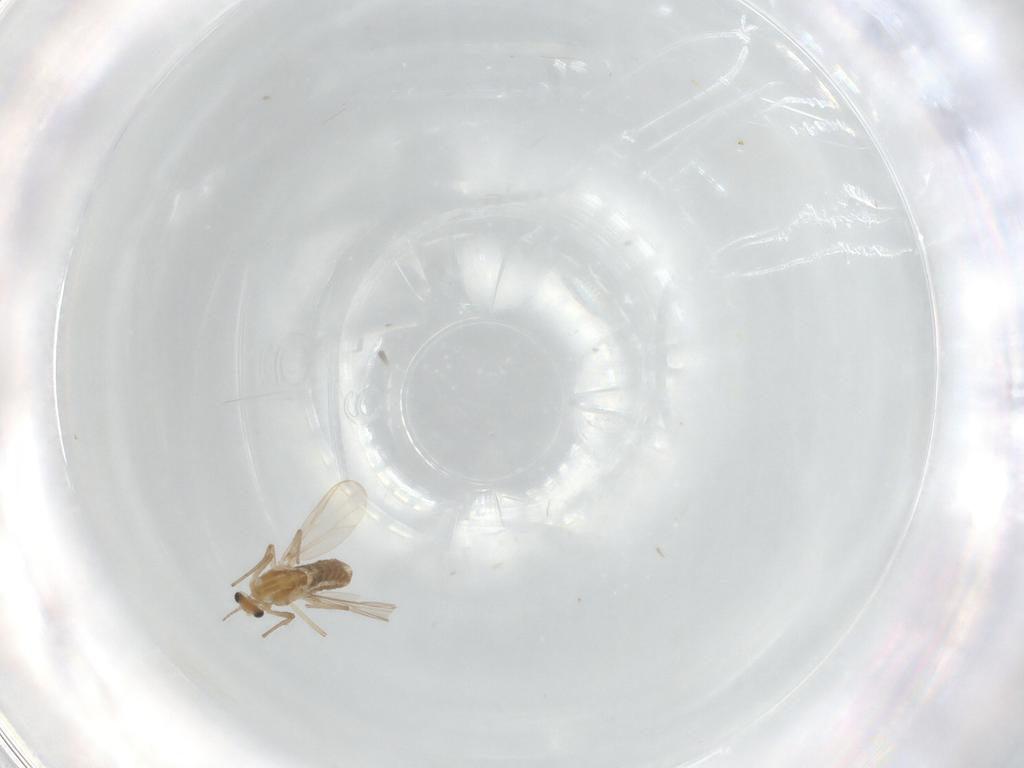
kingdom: Animalia
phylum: Arthropoda
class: Insecta
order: Diptera
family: Chironomidae
